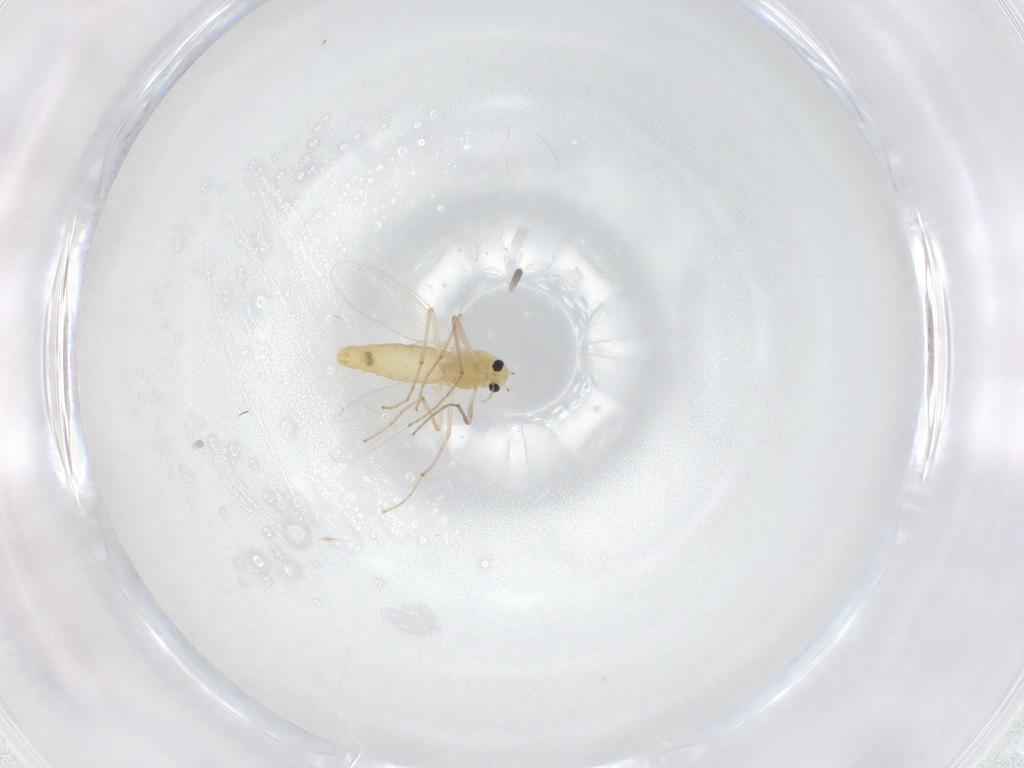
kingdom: Animalia
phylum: Arthropoda
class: Insecta
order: Diptera
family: Chironomidae
